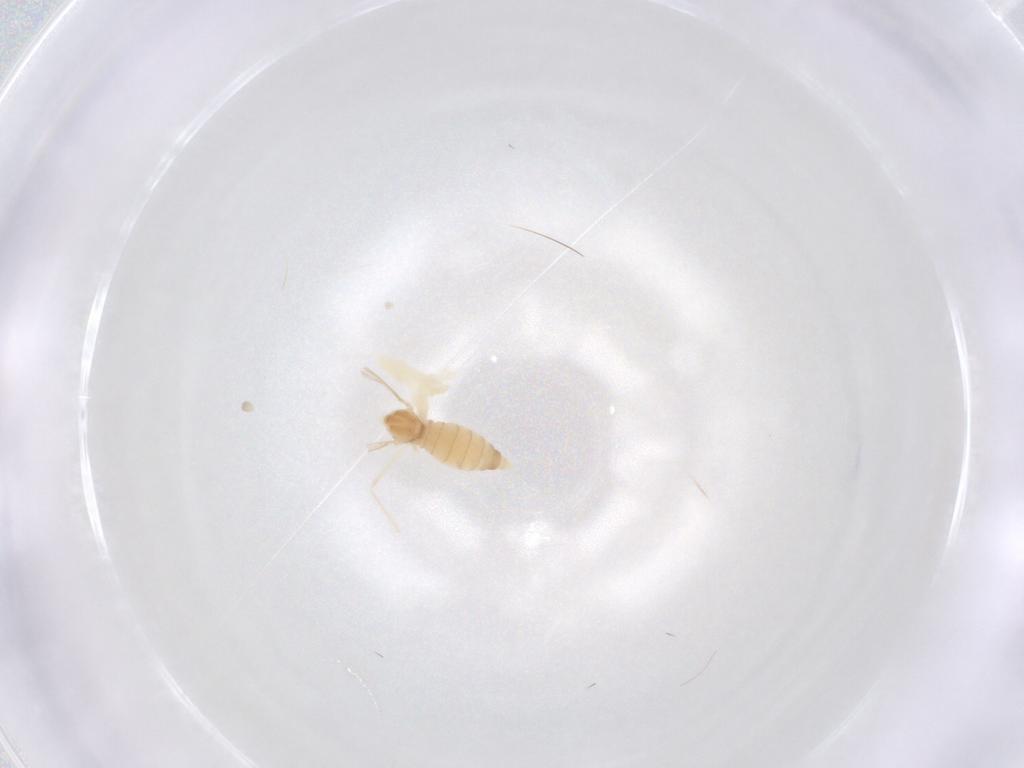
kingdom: Animalia
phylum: Arthropoda
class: Insecta
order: Diptera
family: Cecidomyiidae
